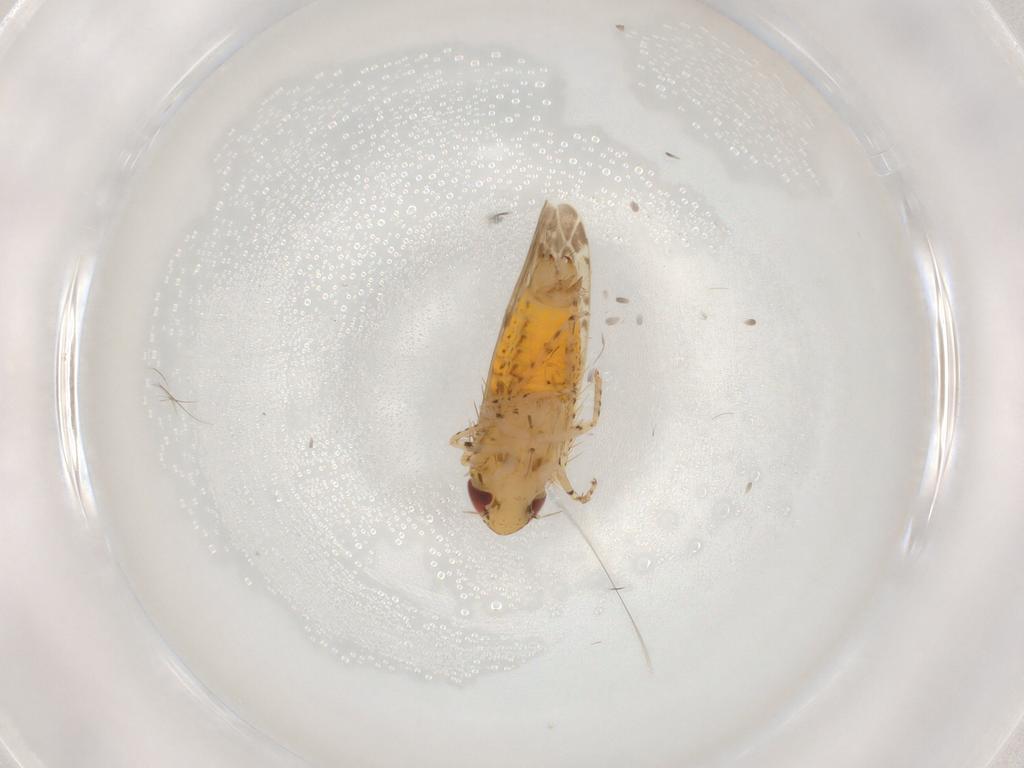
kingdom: Animalia
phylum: Arthropoda
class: Insecta
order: Hemiptera
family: Cicadellidae
